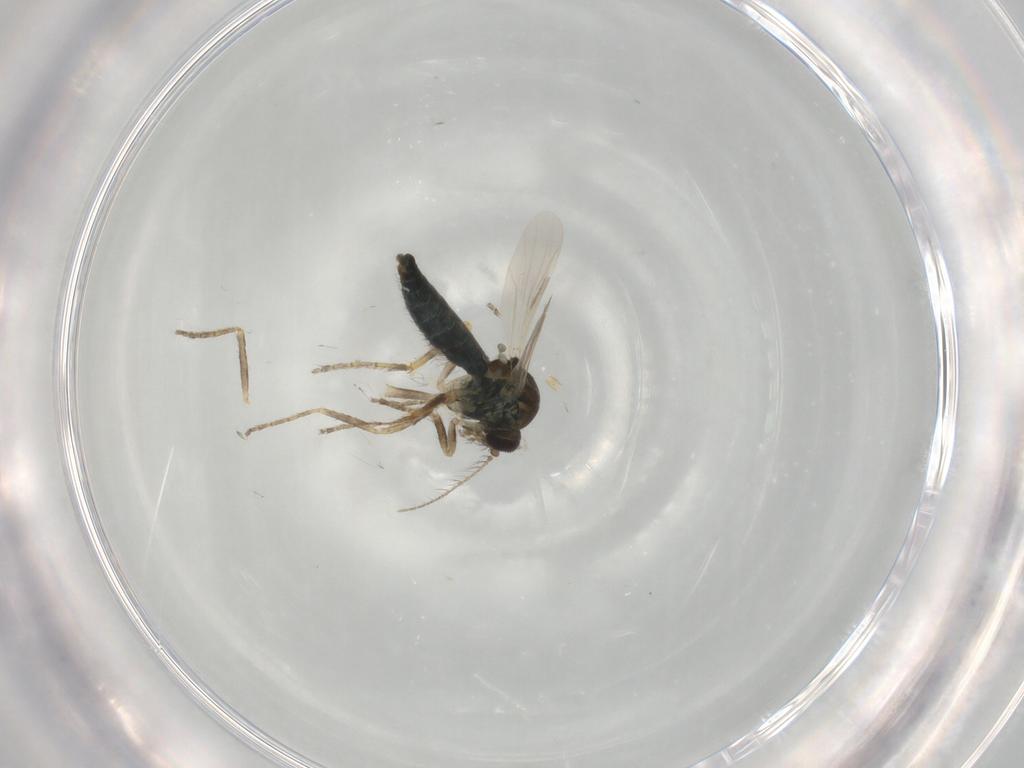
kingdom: Animalia
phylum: Arthropoda
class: Insecta
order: Diptera
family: Ceratopogonidae
